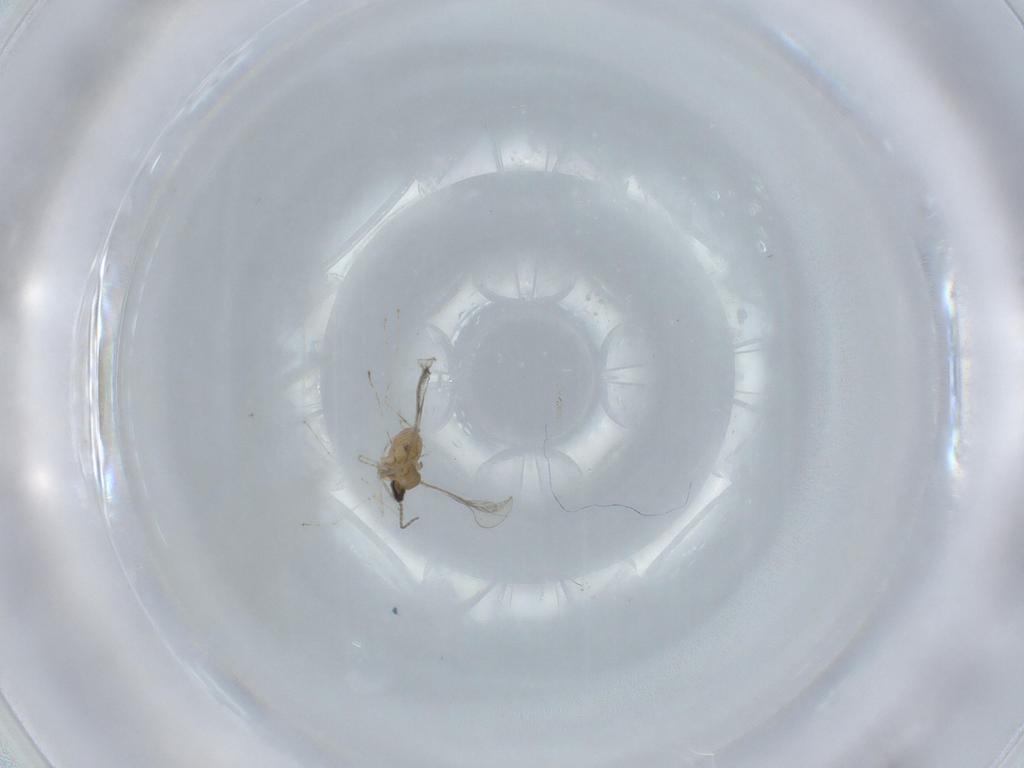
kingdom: Animalia
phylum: Arthropoda
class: Insecta
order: Diptera
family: Cecidomyiidae
